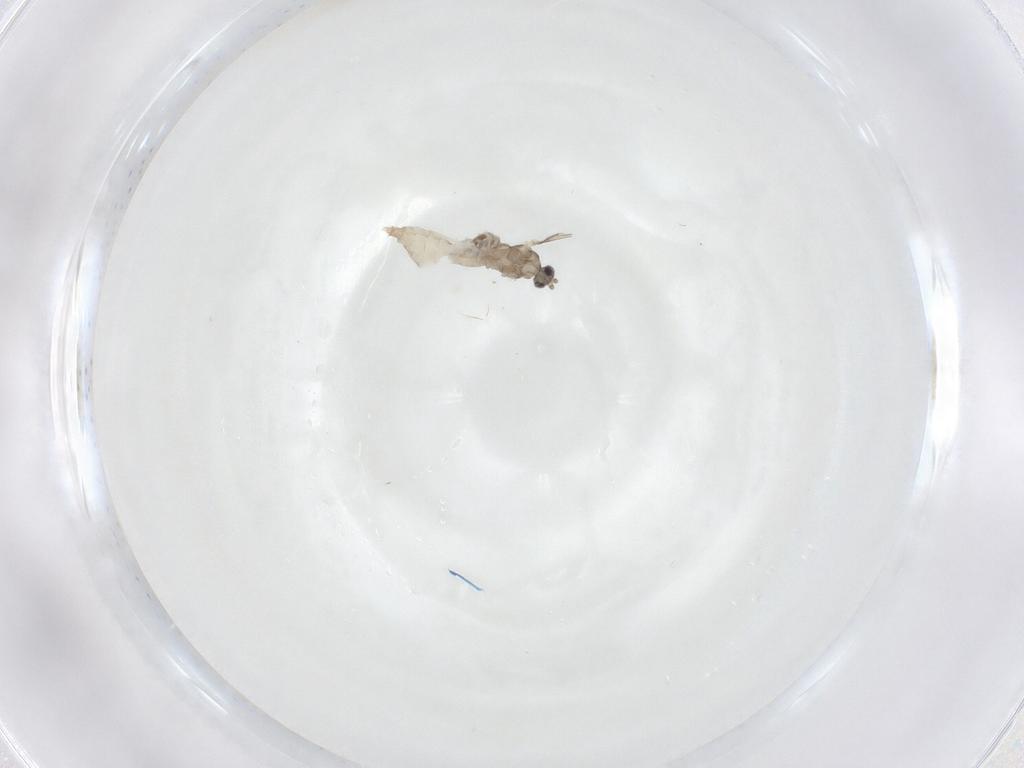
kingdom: Animalia
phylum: Arthropoda
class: Insecta
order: Diptera
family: Cecidomyiidae
